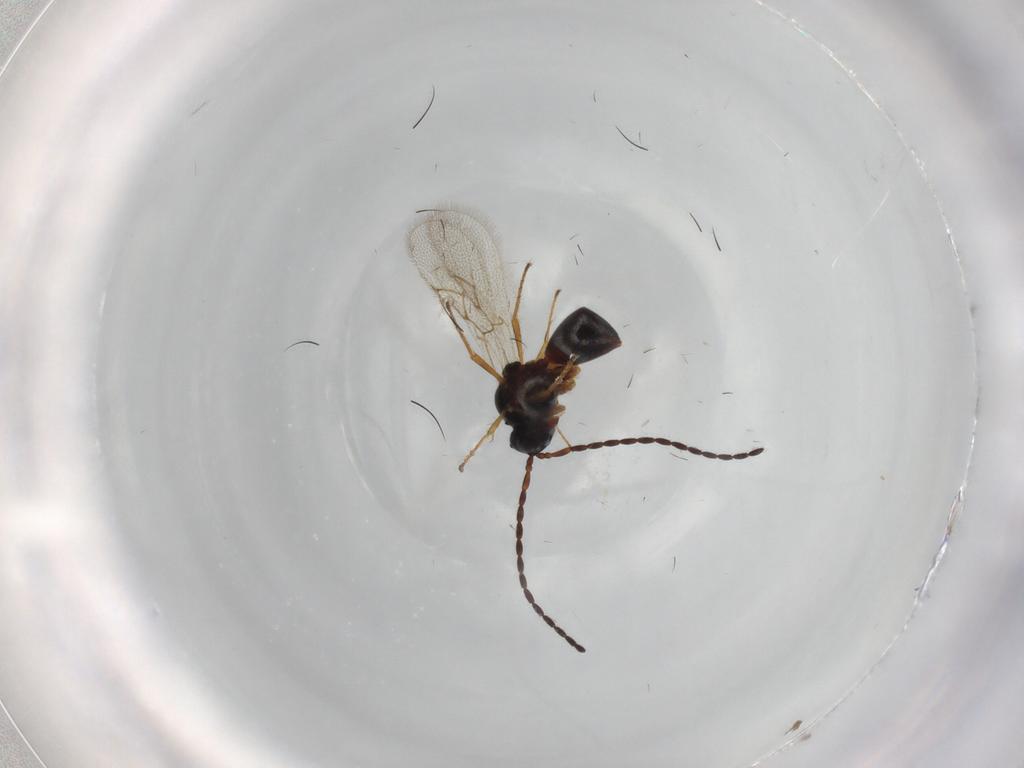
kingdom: Animalia
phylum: Arthropoda
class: Insecta
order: Hymenoptera
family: Figitidae
